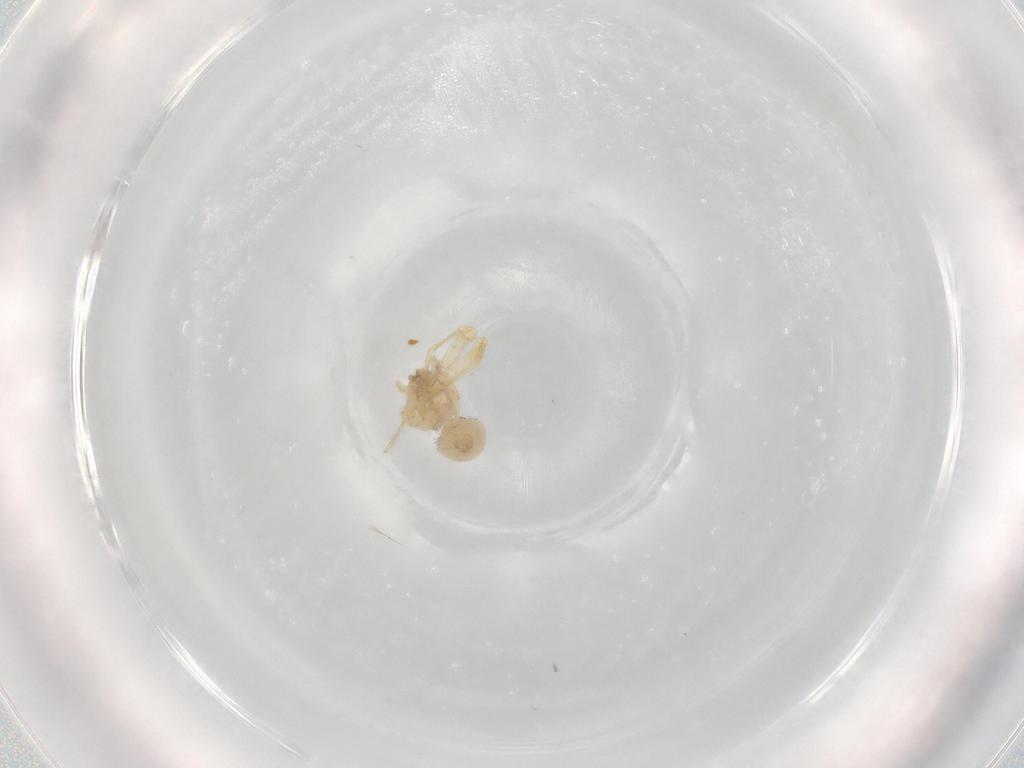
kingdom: Animalia
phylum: Arthropoda
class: Arachnida
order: Araneae
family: Oonopidae
